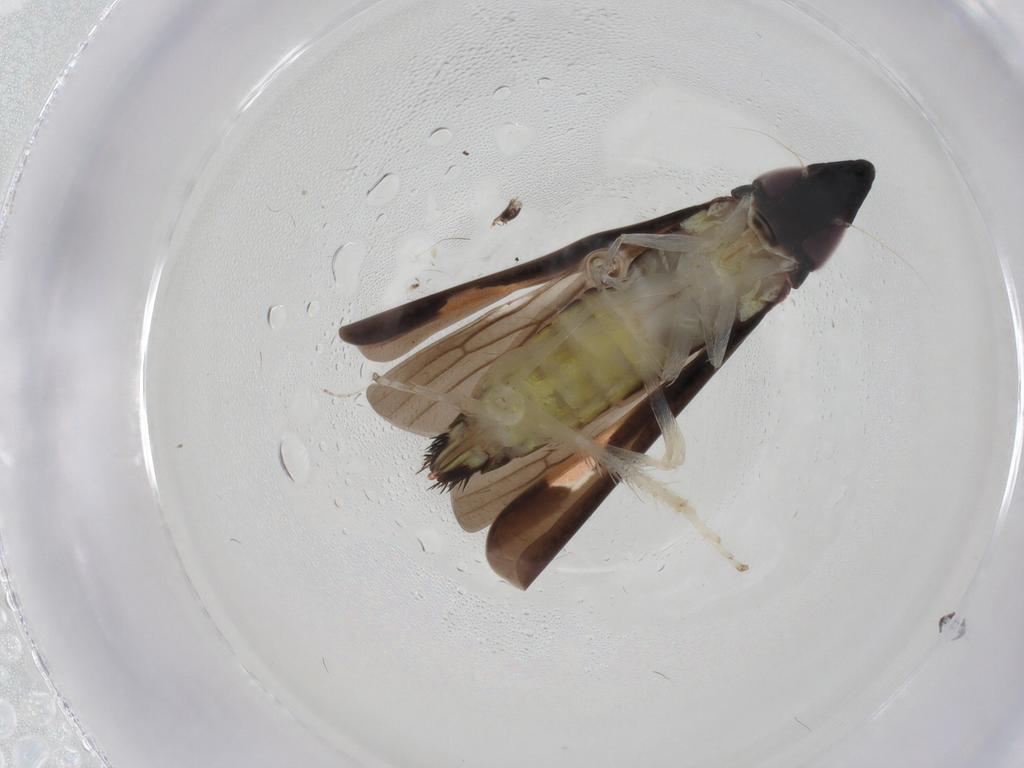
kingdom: Animalia
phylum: Arthropoda
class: Insecta
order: Hemiptera
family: Cicadellidae
